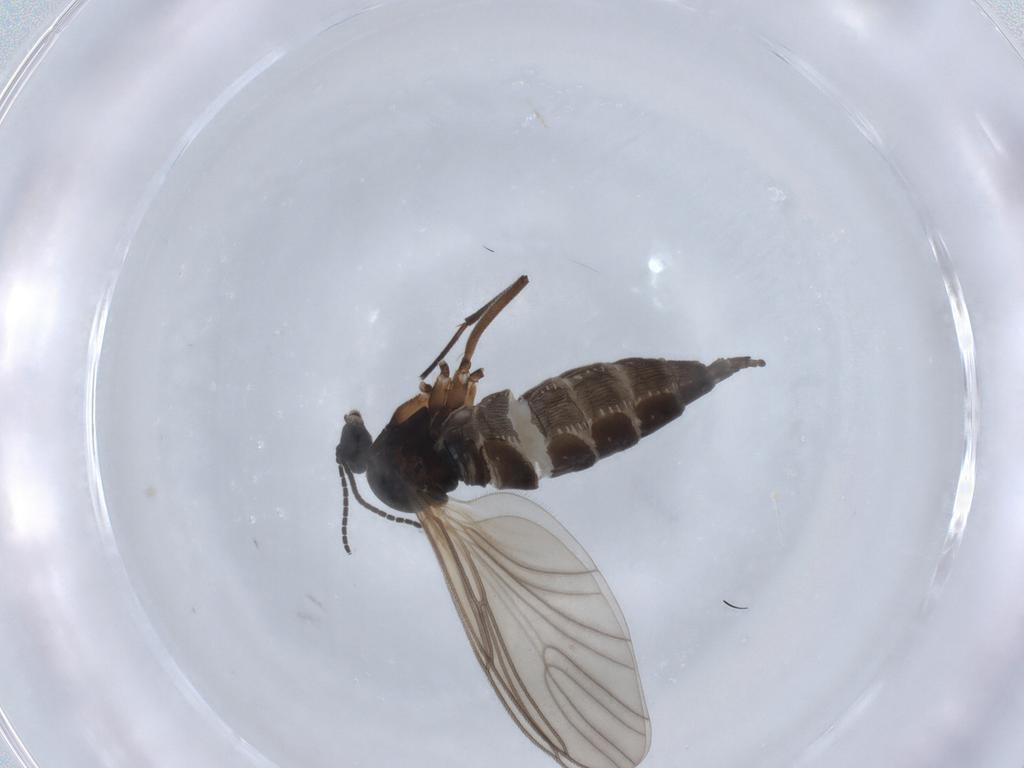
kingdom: Animalia
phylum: Arthropoda
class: Insecta
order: Diptera
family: Sciaridae
